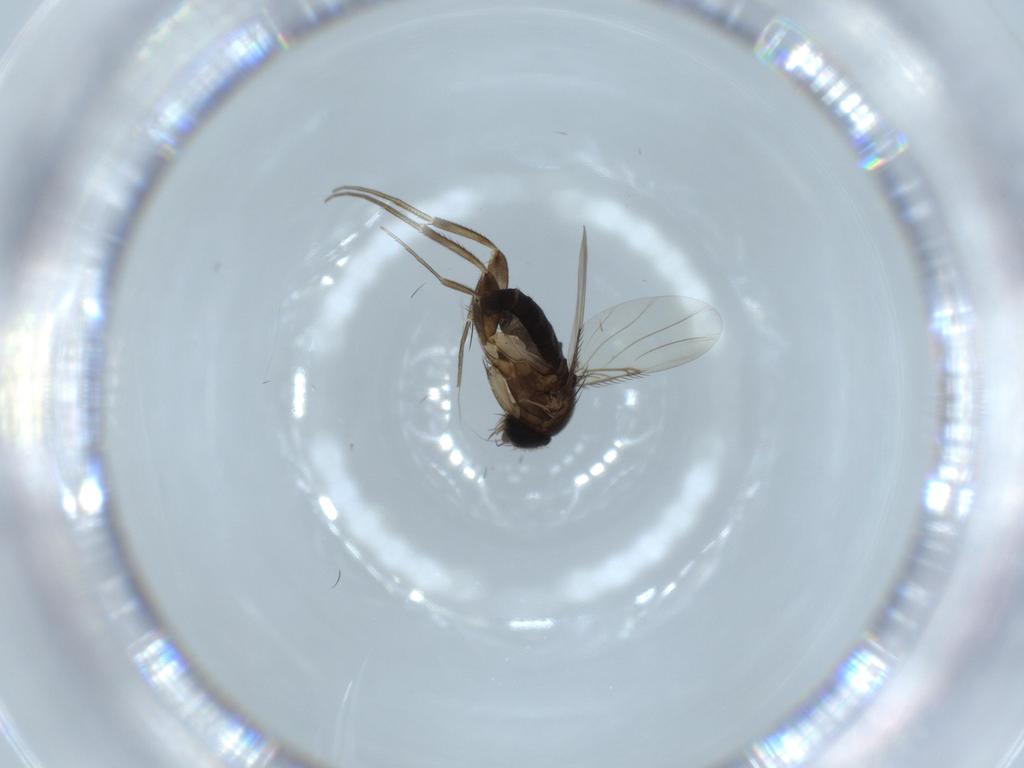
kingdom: Animalia
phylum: Arthropoda
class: Insecta
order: Diptera
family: Phoridae
